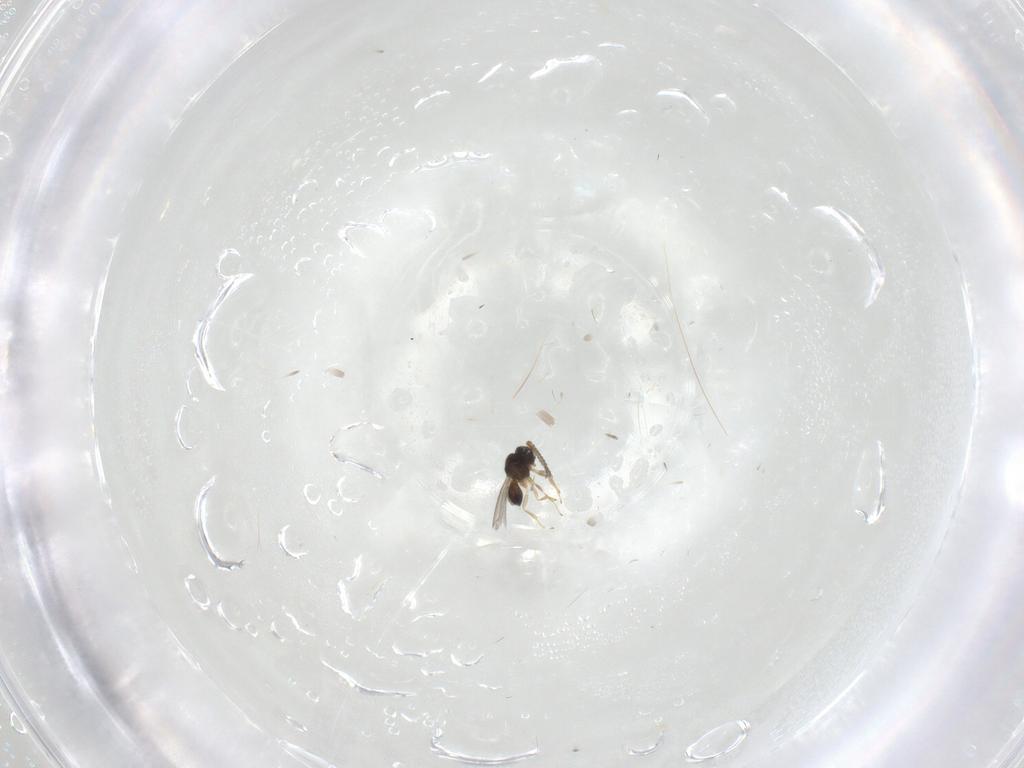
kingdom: Animalia
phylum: Arthropoda
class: Insecta
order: Hymenoptera
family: Scelionidae
